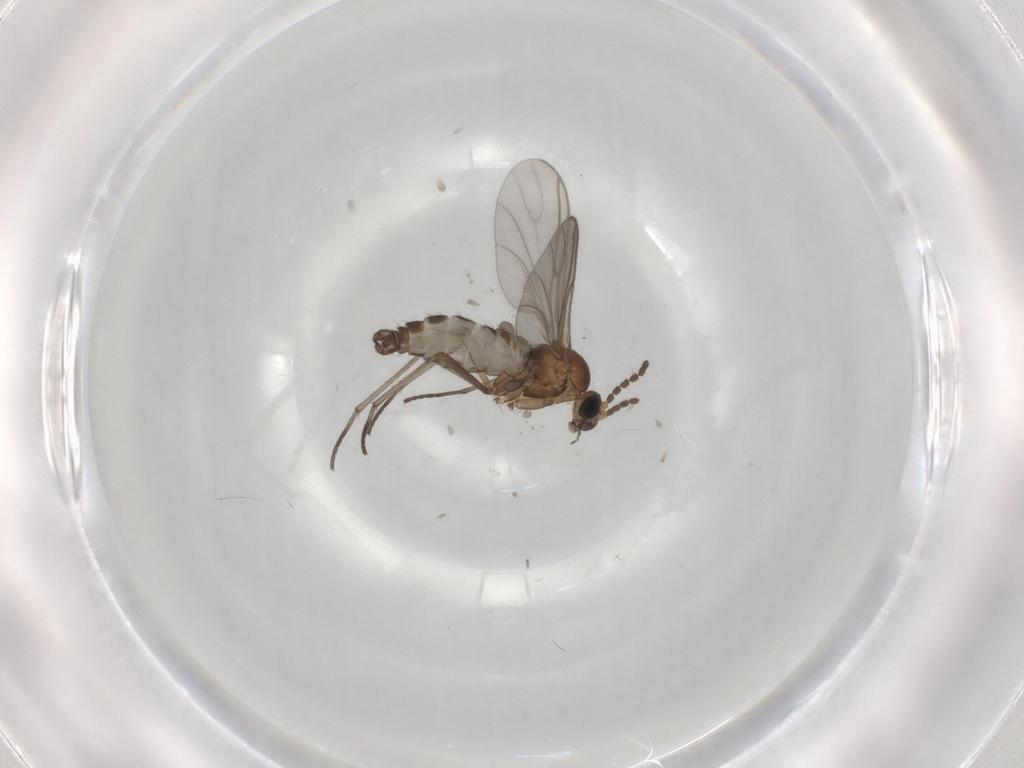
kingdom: Animalia
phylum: Arthropoda
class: Insecta
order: Diptera
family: Sciaridae
